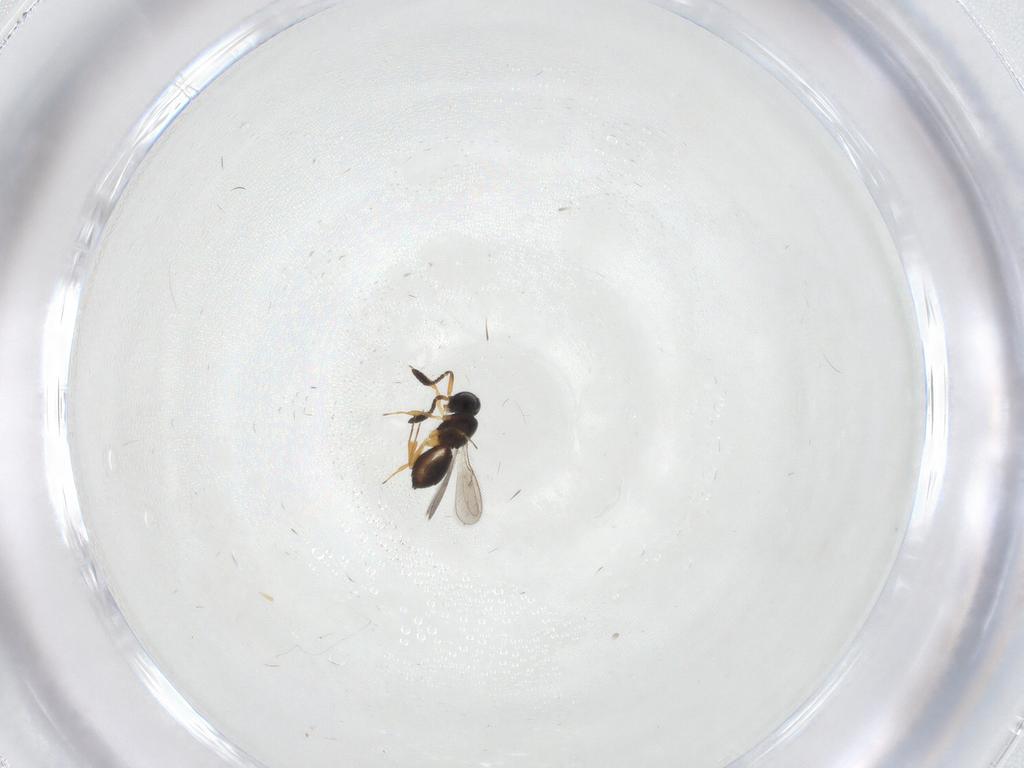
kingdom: Animalia
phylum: Arthropoda
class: Insecta
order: Hymenoptera
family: Scelionidae
